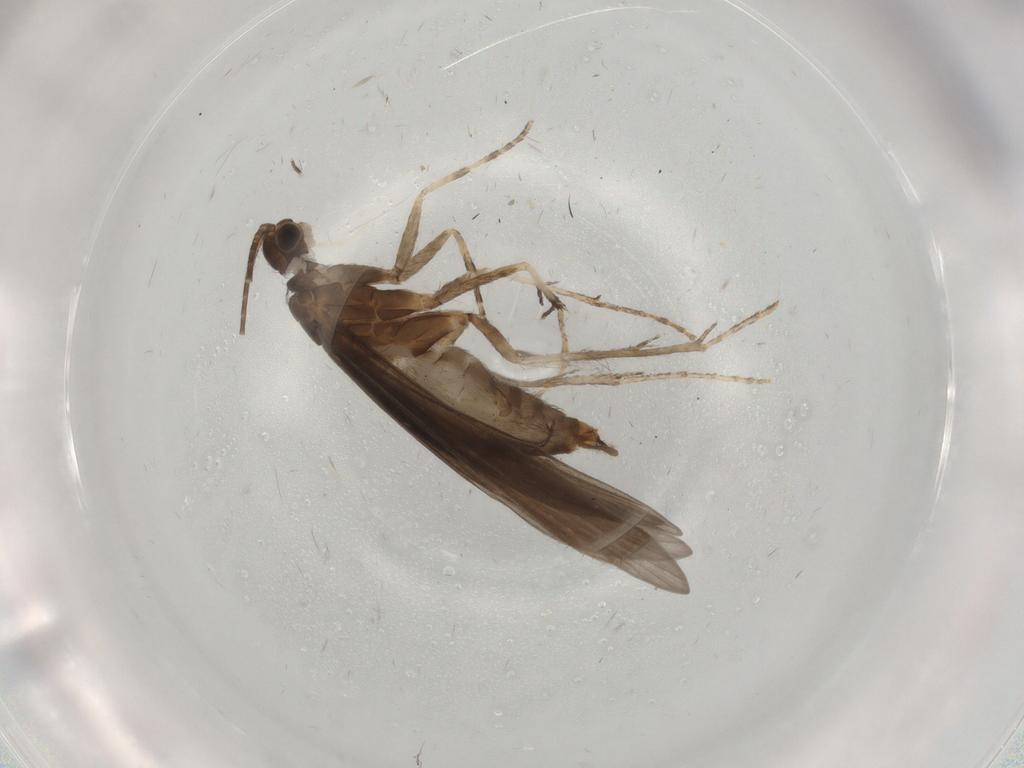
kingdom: Animalia
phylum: Arthropoda
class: Insecta
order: Trichoptera
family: Xiphocentronidae
